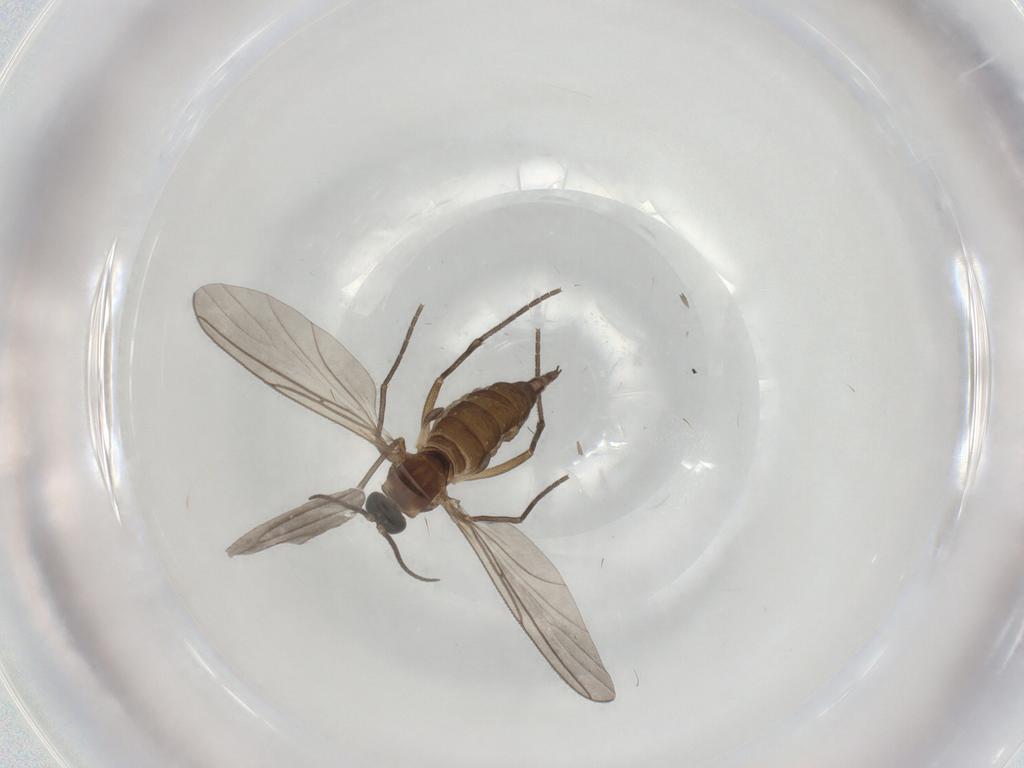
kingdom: Animalia
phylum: Arthropoda
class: Insecta
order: Diptera
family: Sciaridae
